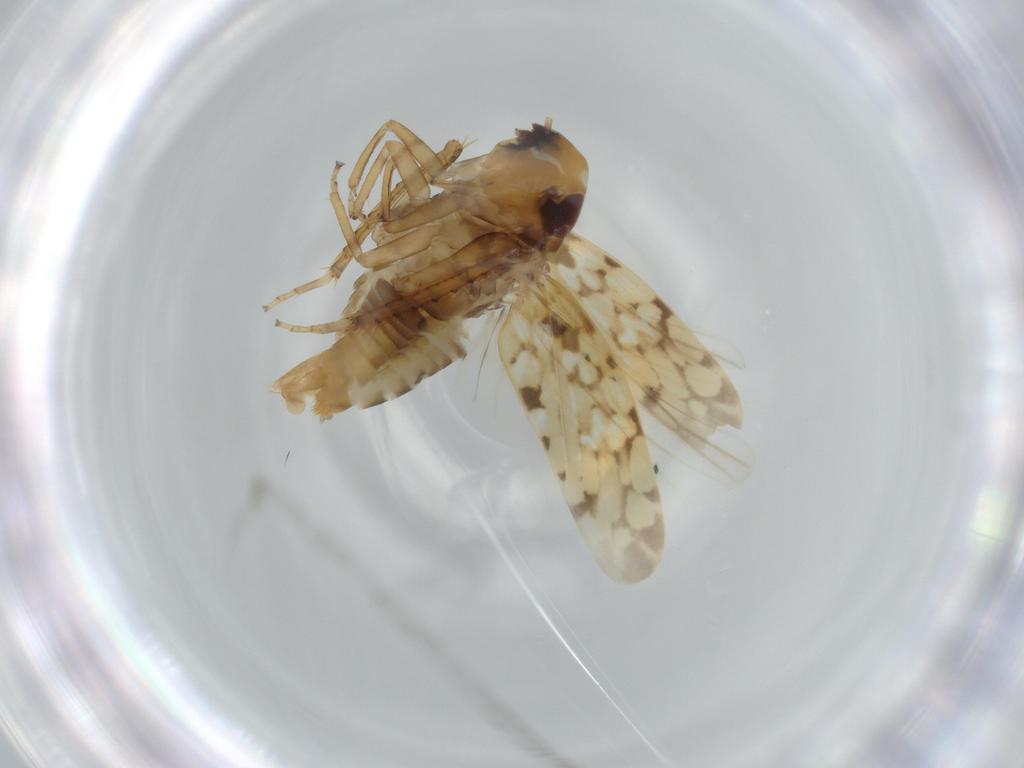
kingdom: Animalia
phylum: Arthropoda
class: Insecta
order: Hemiptera
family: Cicadellidae
